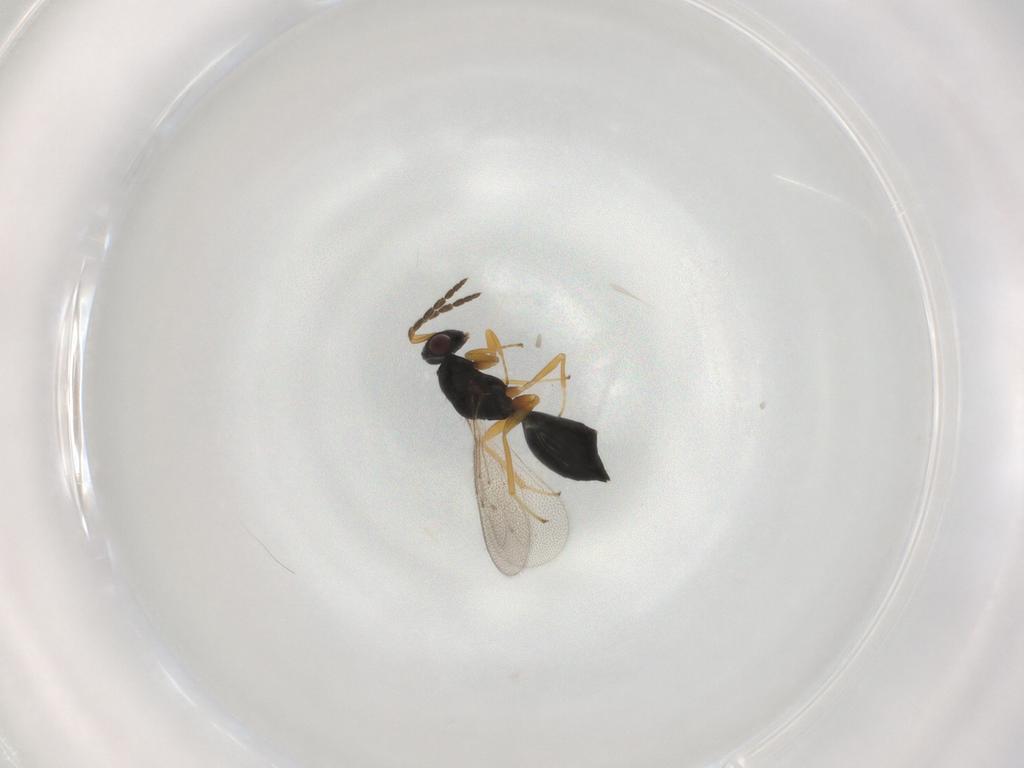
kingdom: Animalia
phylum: Arthropoda
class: Insecta
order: Hymenoptera
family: Eulophidae
